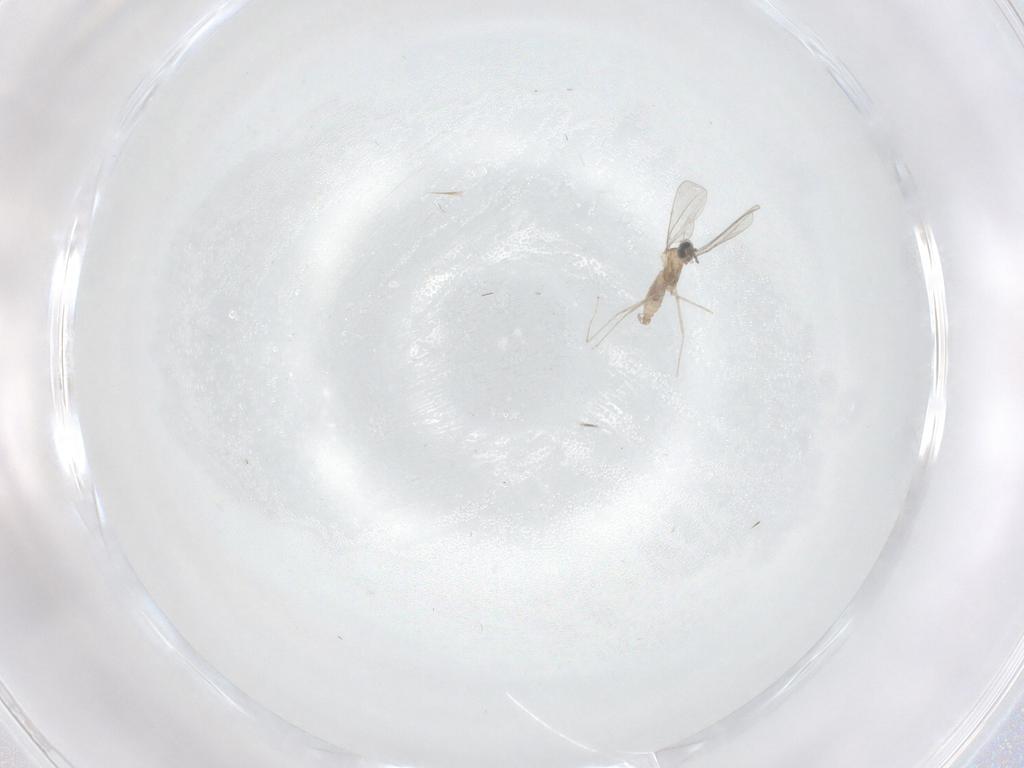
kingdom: Animalia
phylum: Arthropoda
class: Insecta
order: Diptera
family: Cecidomyiidae
